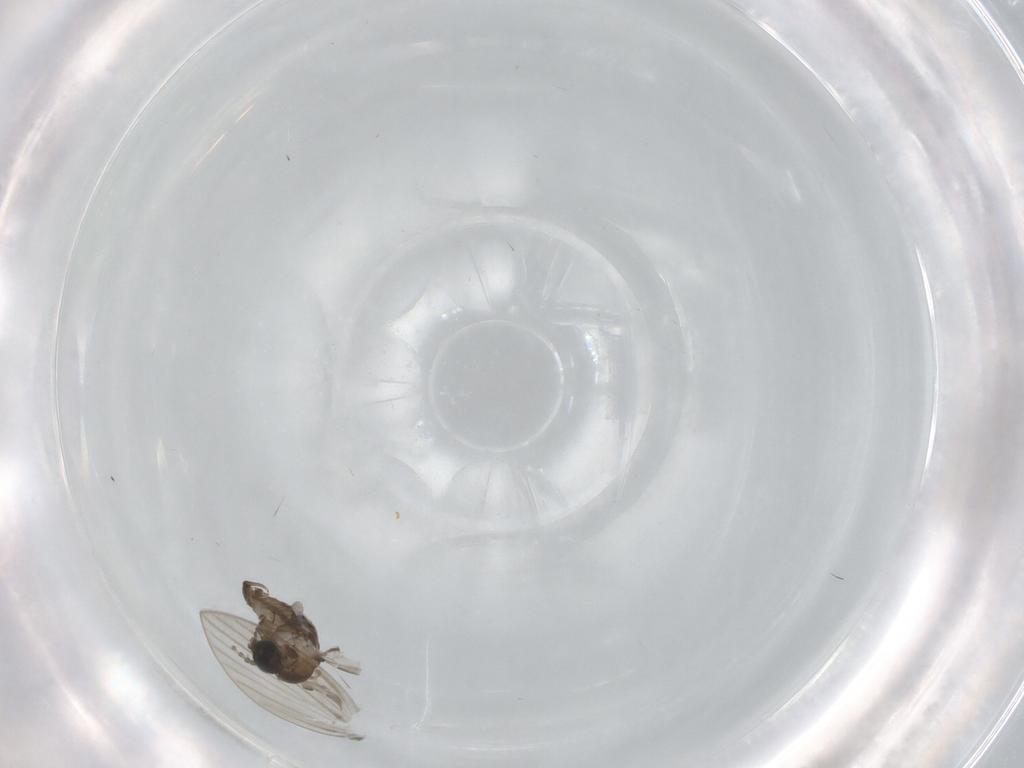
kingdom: Animalia
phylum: Arthropoda
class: Insecta
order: Diptera
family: Psychodidae
